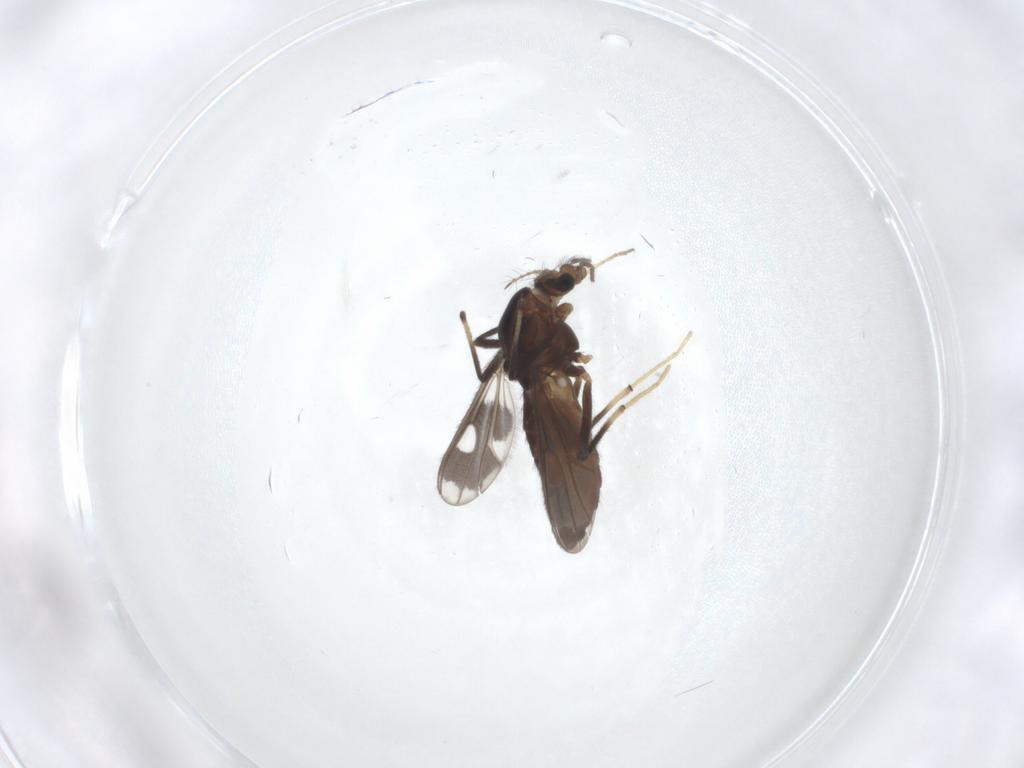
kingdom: Animalia
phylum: Arthropoda
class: Insecta
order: Diptera
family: Chironomidae
